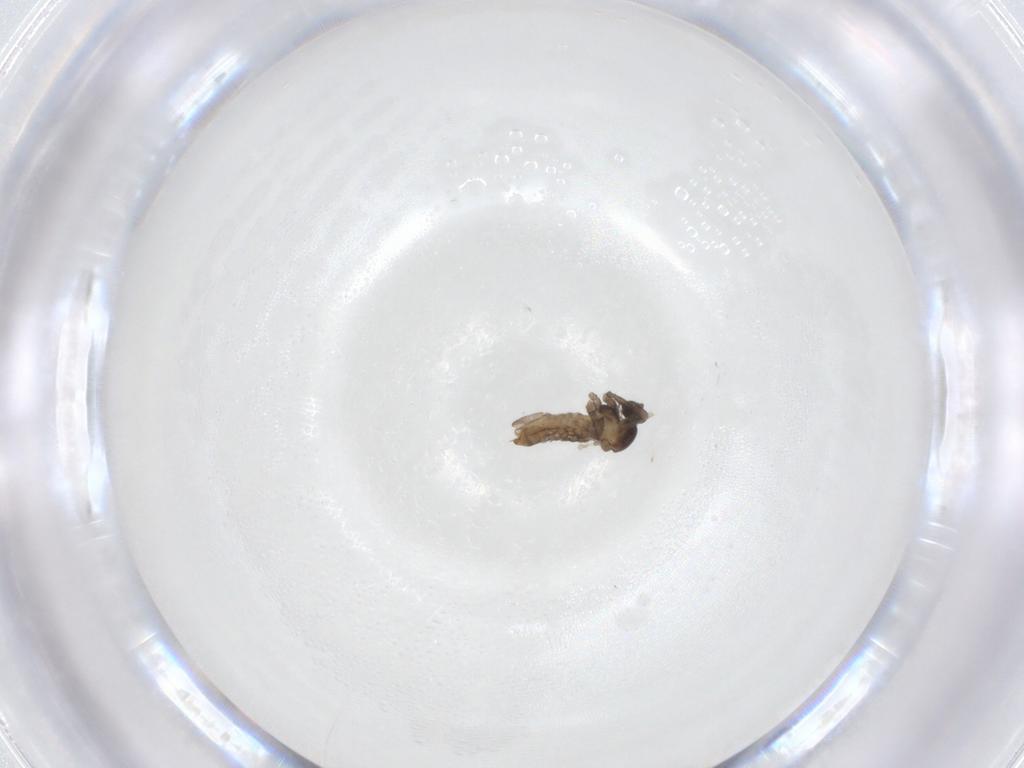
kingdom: Animalia
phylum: Arthropoda
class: Insecta
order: Diptera
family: Cecidomyiidae
